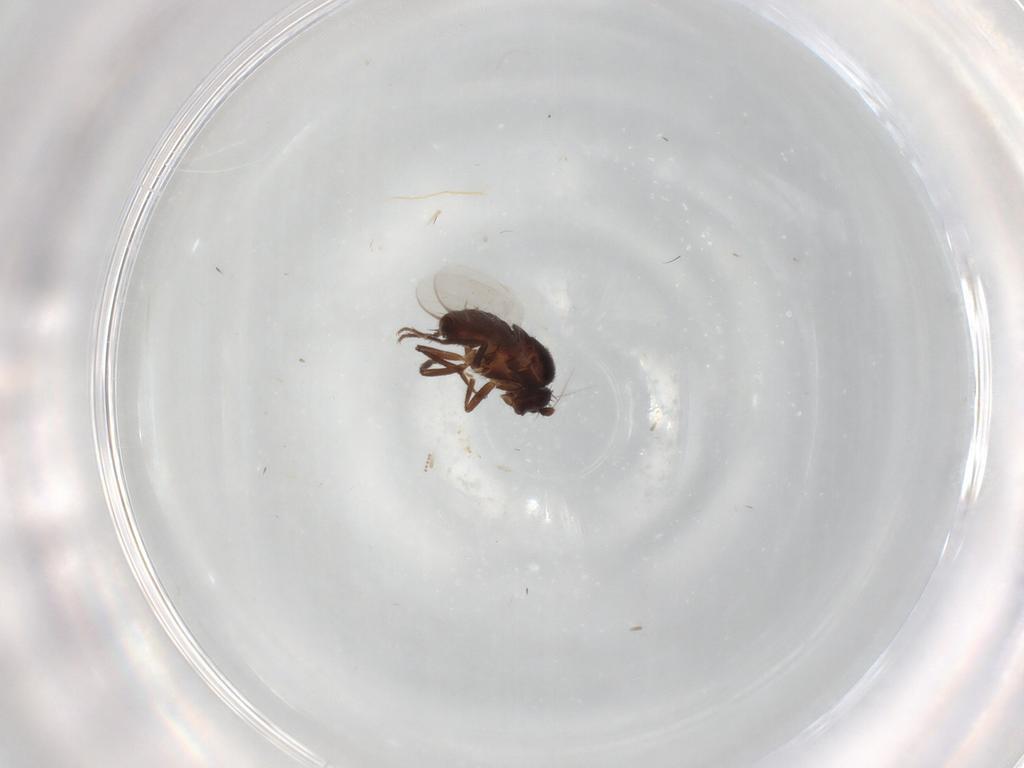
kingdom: Animalia
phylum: Arthropoda
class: Insecta
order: Diptera
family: Sphaeroceridae
